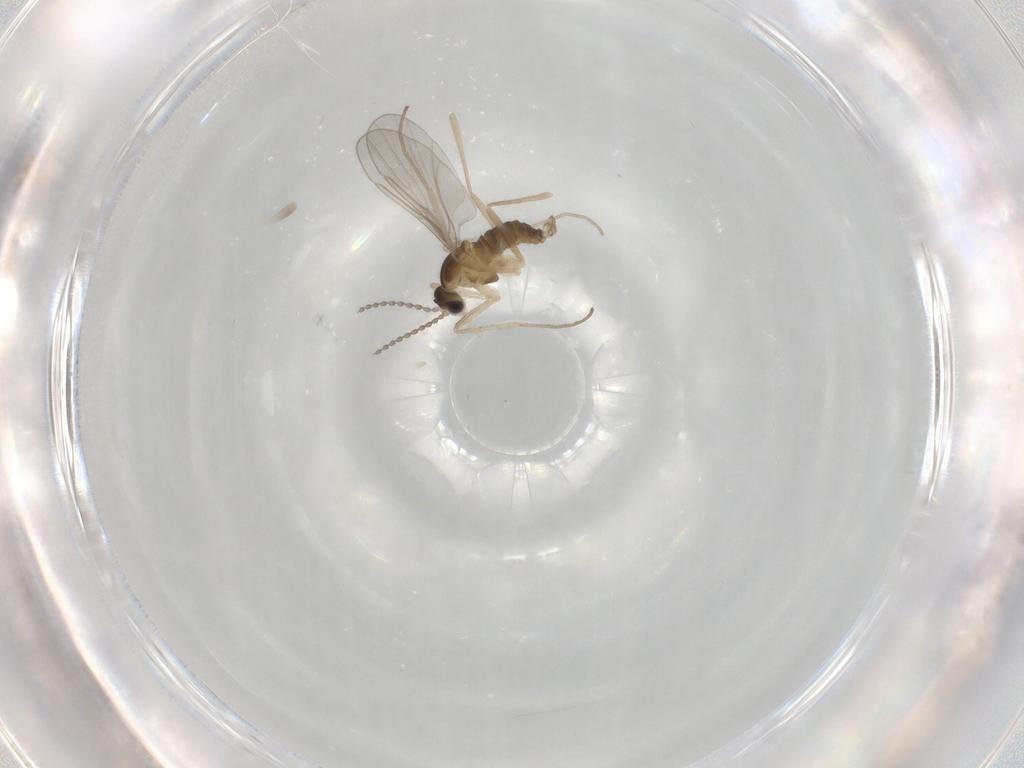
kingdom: Animalia
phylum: Arthropoda
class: Insecta
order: Diptera
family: Cecidomyiidae
